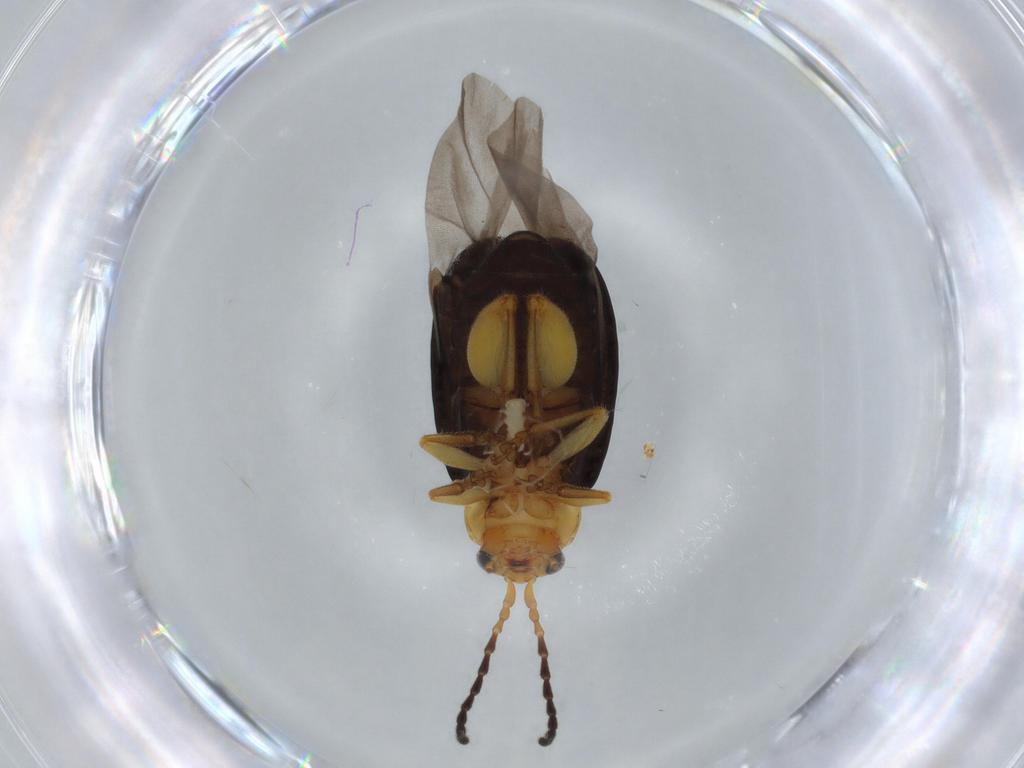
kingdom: Animalia
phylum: Arthropoda
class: Insecta
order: Coleoptera
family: Chrysomelidae
